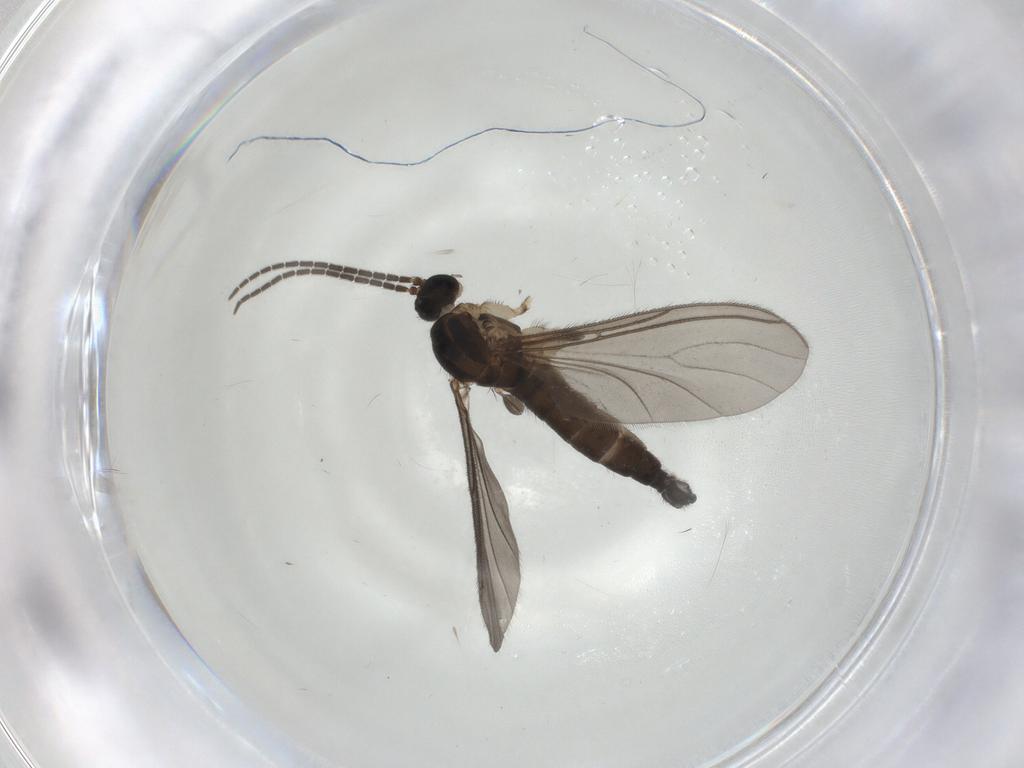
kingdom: Animalia
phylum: Arthropoda
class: Insecta
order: Diptera
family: Sciaridae
